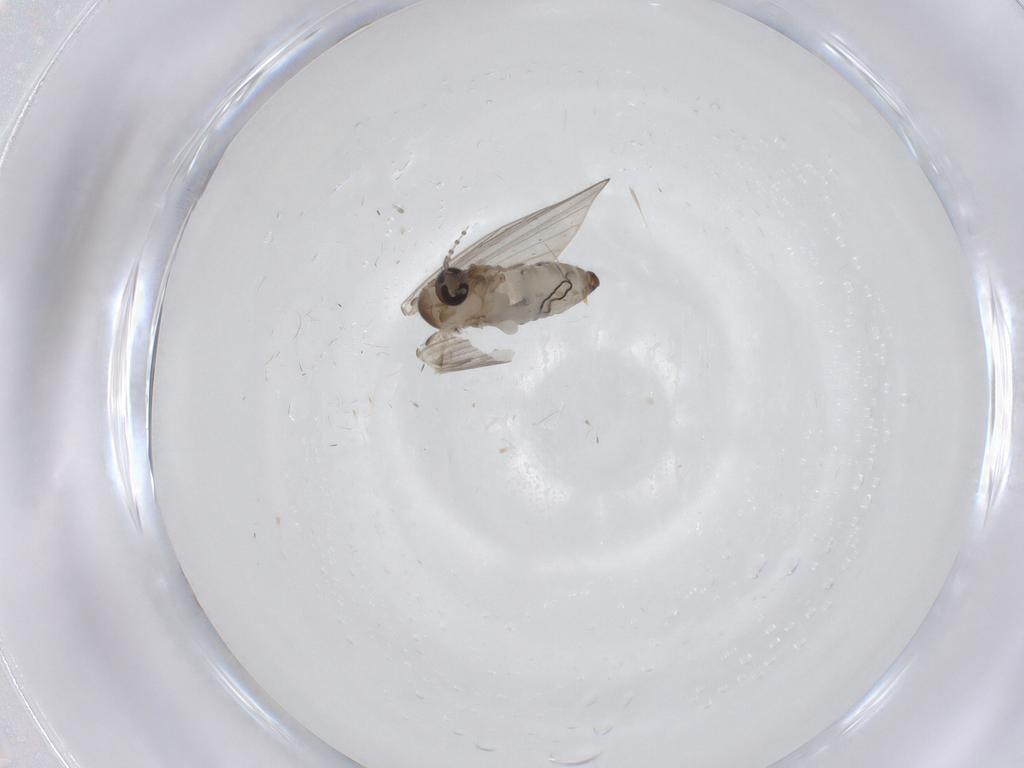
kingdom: Animalia
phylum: Arthropoda
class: Insecta
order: Diptera
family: Psychodidae
